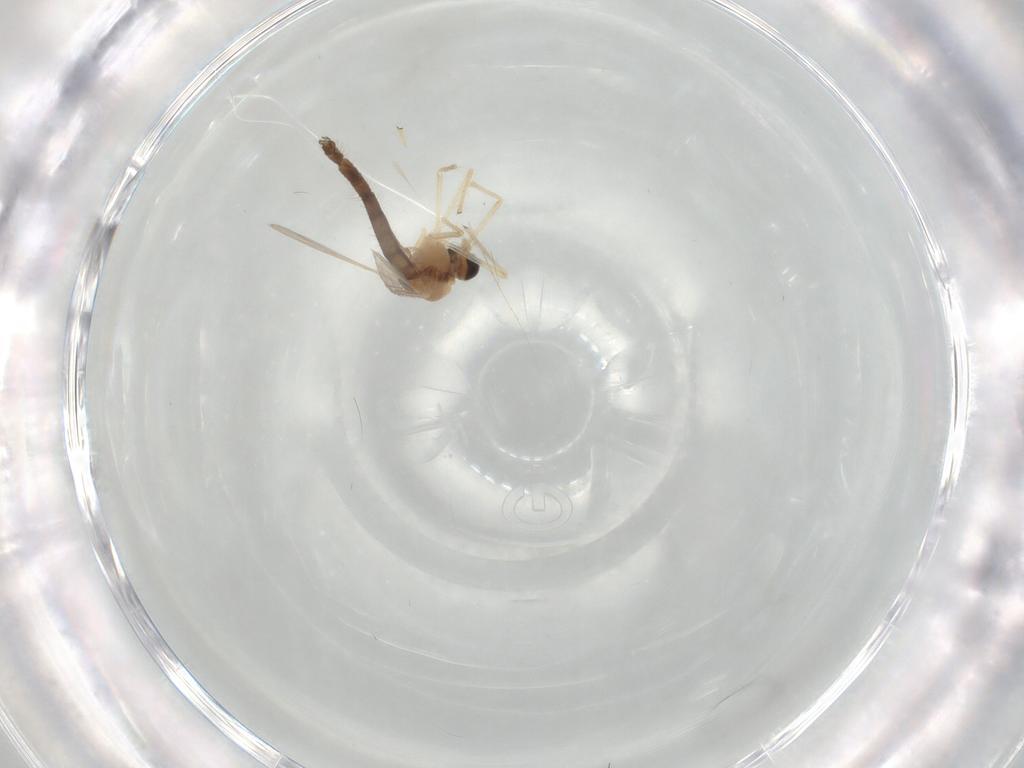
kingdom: Animalia
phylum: Arthropoda
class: Insecta
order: Diptera
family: Chironomidae
